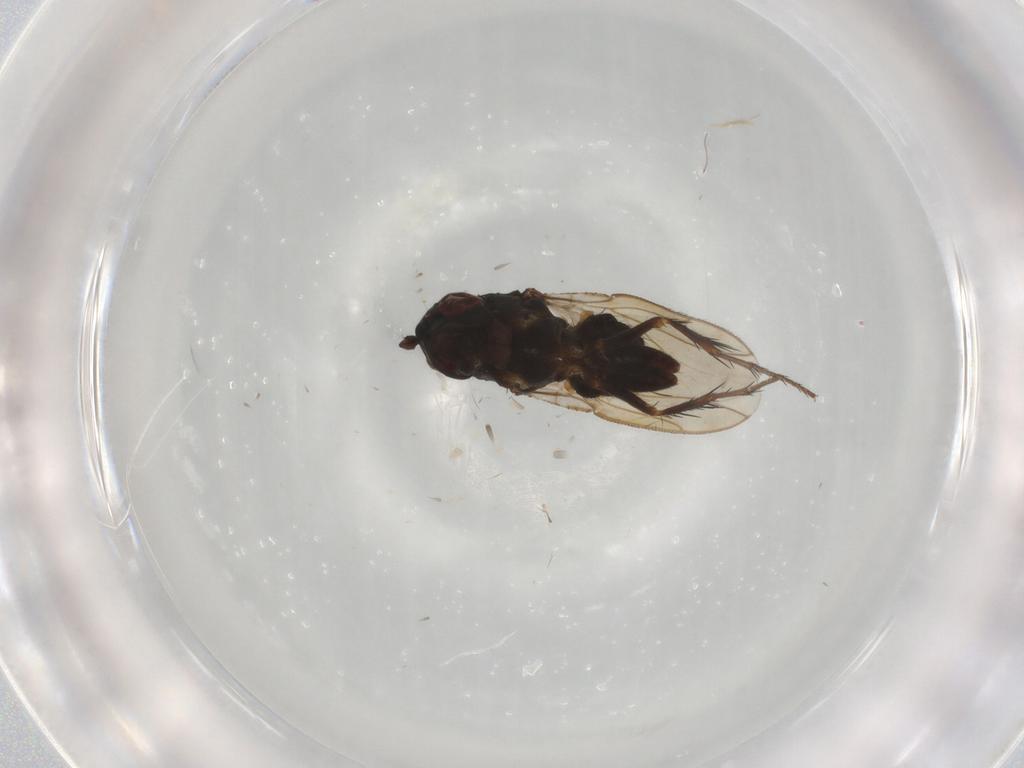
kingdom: Animalia
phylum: Arthropoda
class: Insecta
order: Diptera
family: Sphaeroceridae
